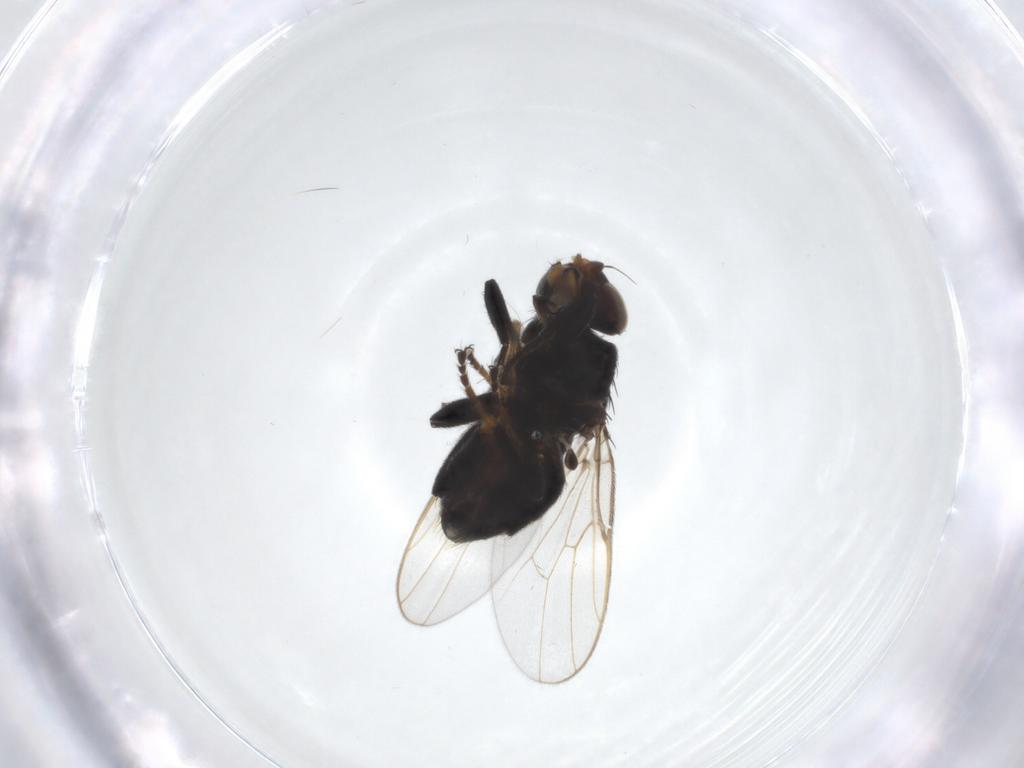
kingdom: Animalia
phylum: Arthropoda
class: Insecta
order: Diptera
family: Chloropidae
